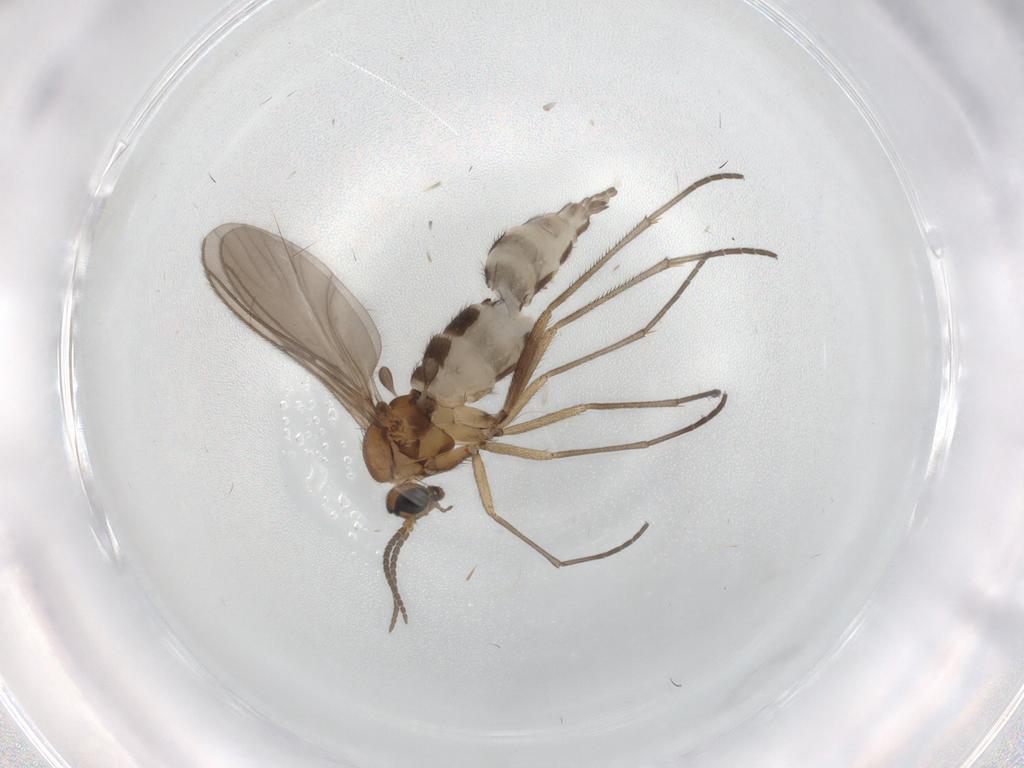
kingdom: Animalia
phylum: Arthropoda
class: Insecta
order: Diptera
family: Sciaridae
